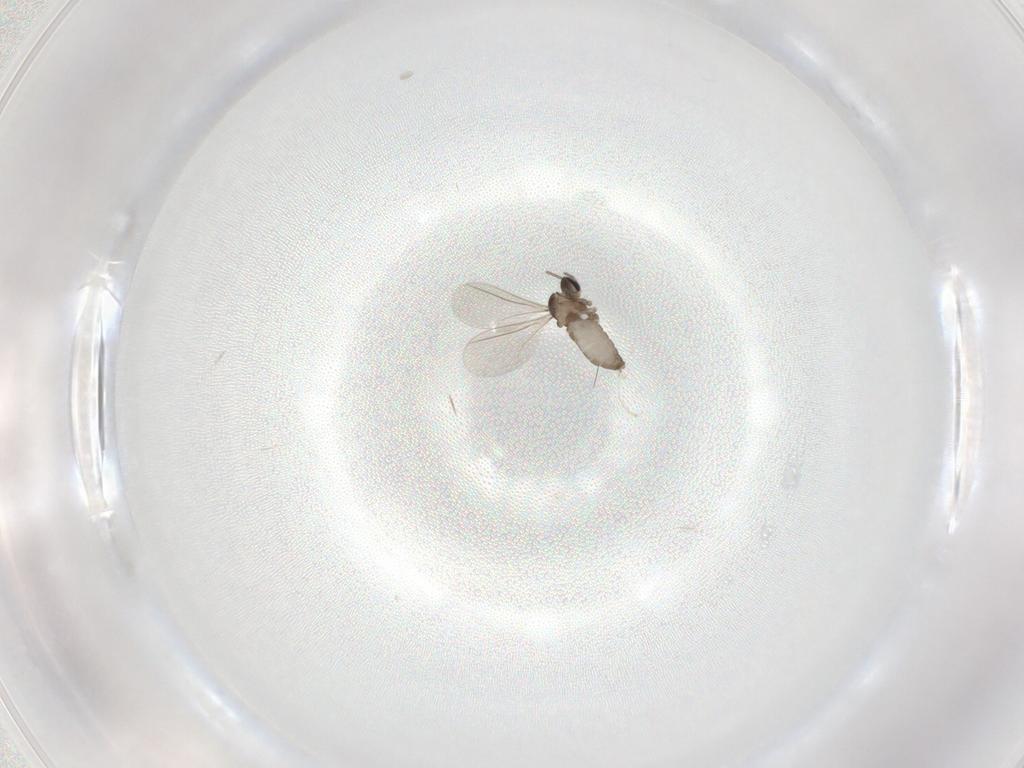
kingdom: Animalia
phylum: Arthropoda
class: Insecta
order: Diptera
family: Cecidomyiidae
